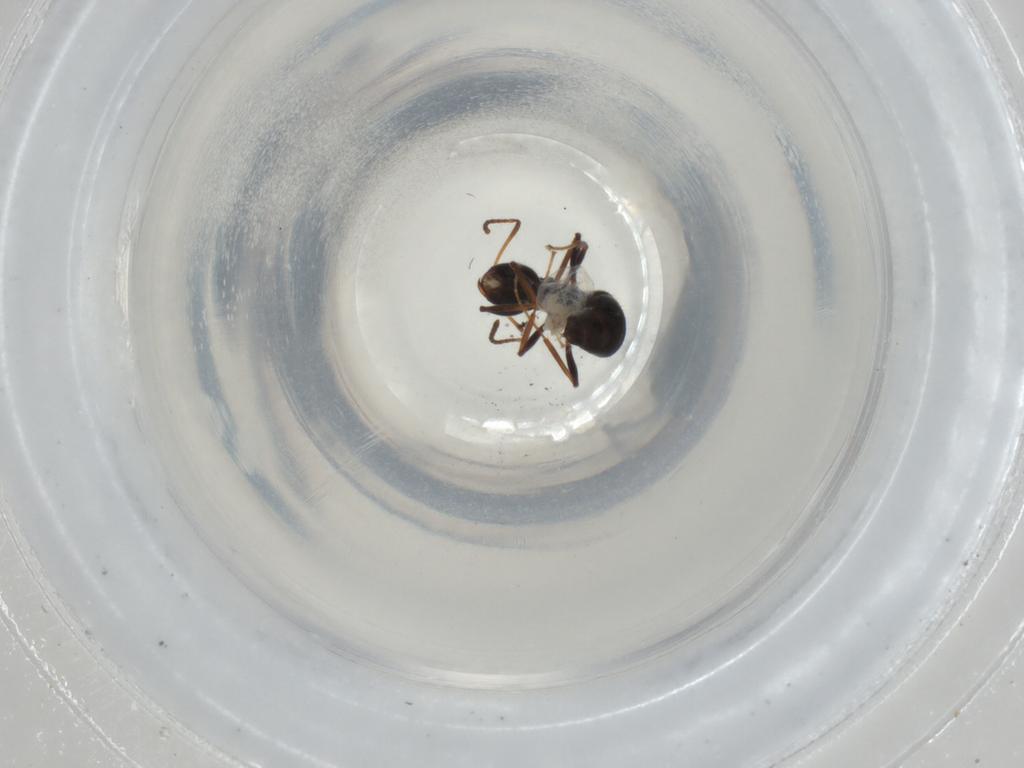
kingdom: Animalia
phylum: Arthropoda
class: Insecta
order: Hymenoptera
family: Formicidae
